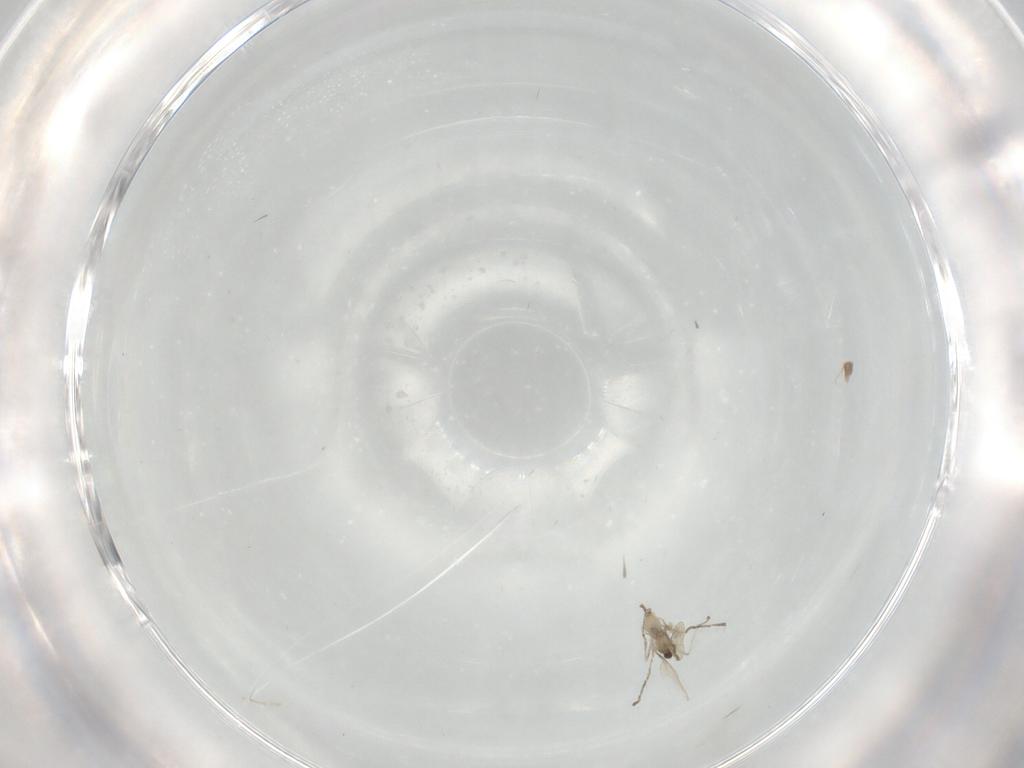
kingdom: Animalia
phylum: Arthropoda
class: Insecta
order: Diptera
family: Cecidomyiidae
